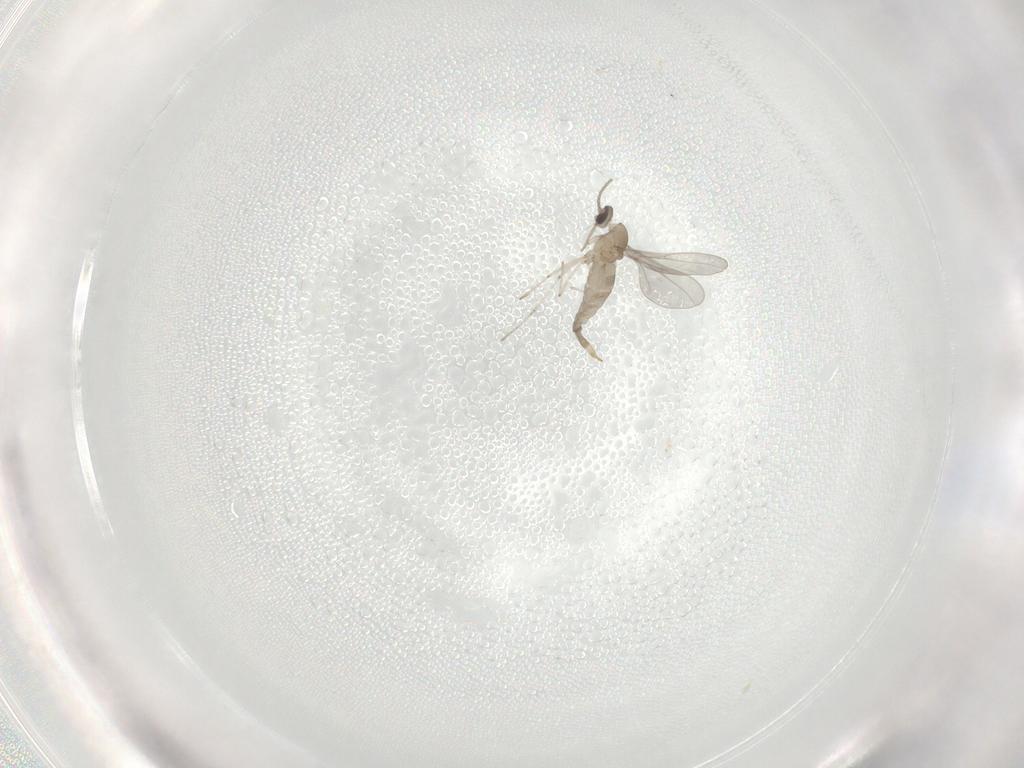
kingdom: Animalia
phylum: Arthropoda
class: Insecta
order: Diptera
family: Cecidomyiidae
